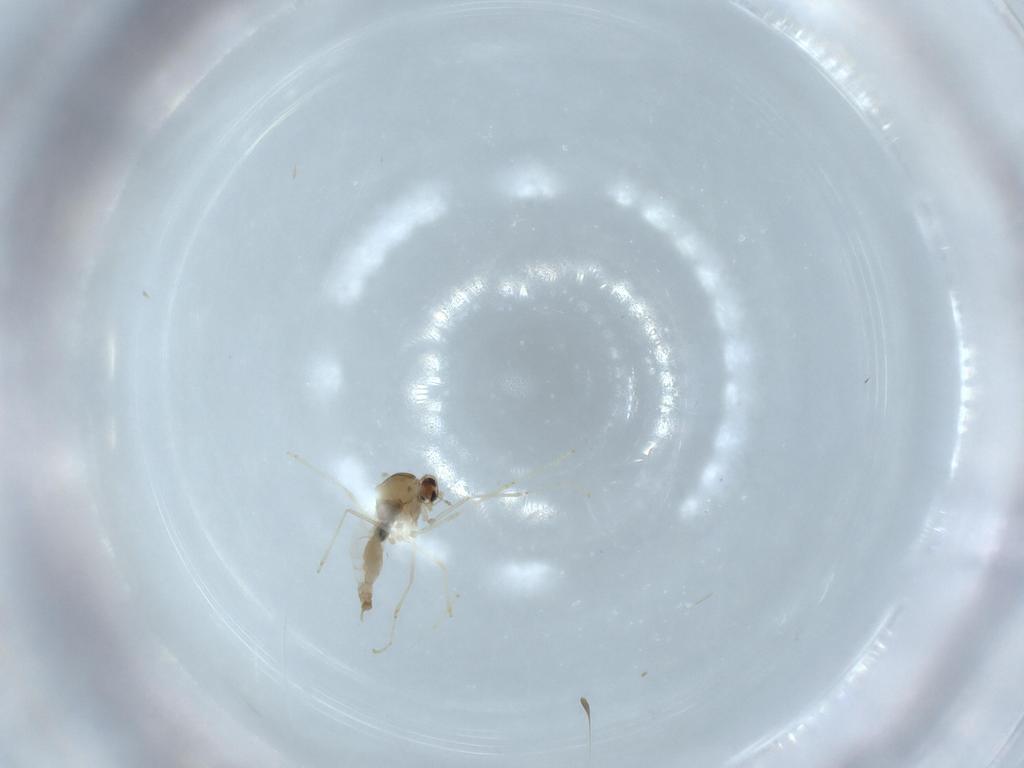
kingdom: Animalia
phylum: Arthropoda
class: Insecta
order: Diptera
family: Cecidomyiidae
